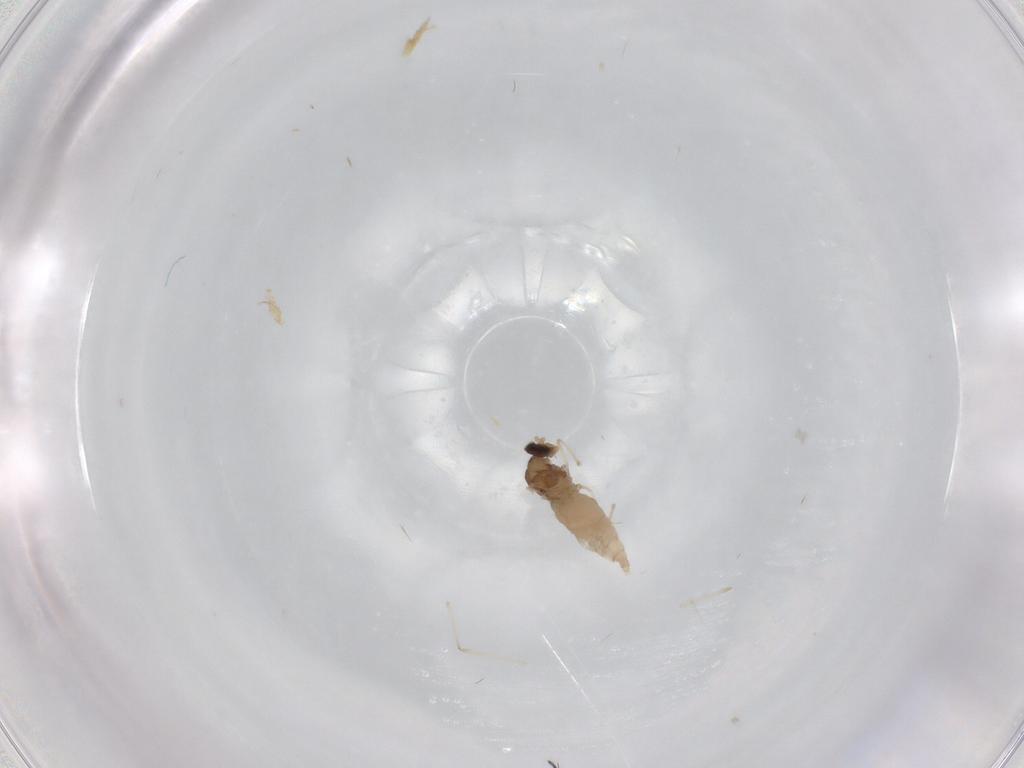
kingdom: Animalia
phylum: Arthropoda
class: Insecta
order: Diptera
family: Cecidomyiidae
